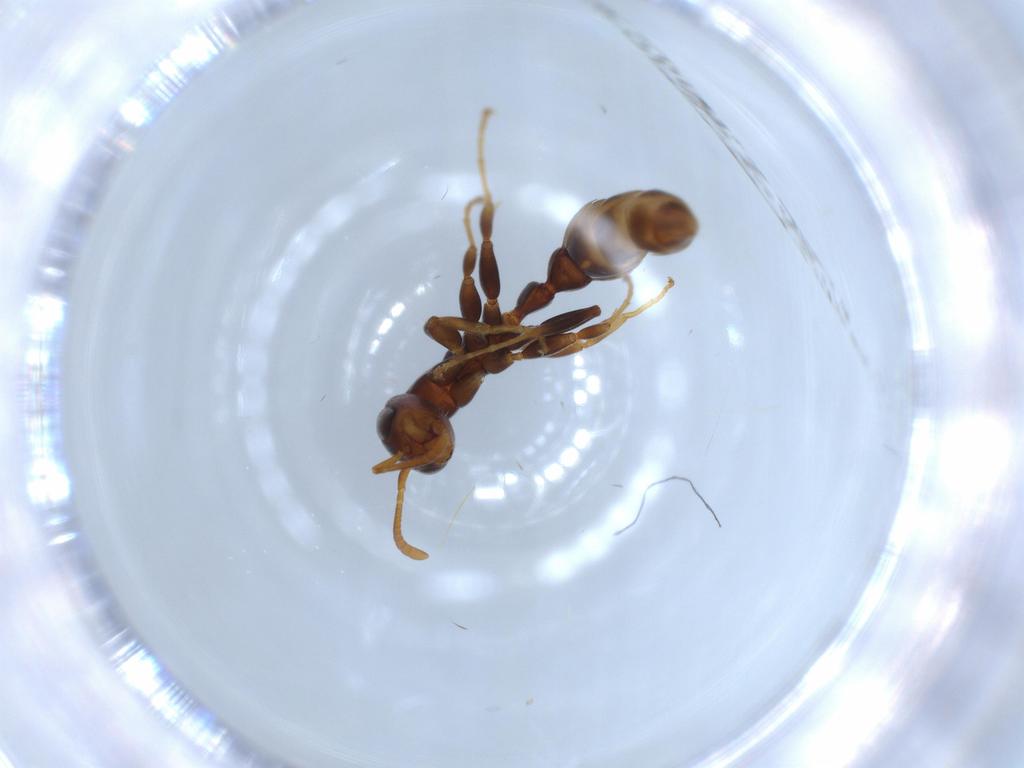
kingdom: Animalia
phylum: Arthropoda
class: Insecta
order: Hymenoptera
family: Formicidae
